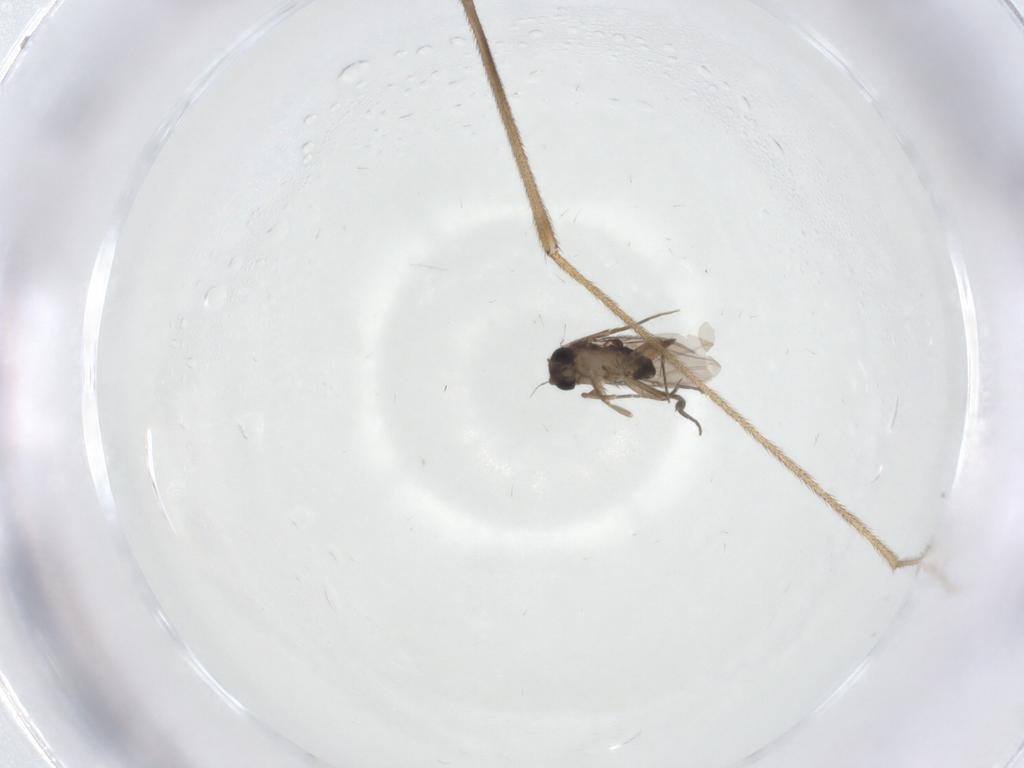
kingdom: Animalia
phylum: Arthropoda
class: Insecta
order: Diptera
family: Phoridae
